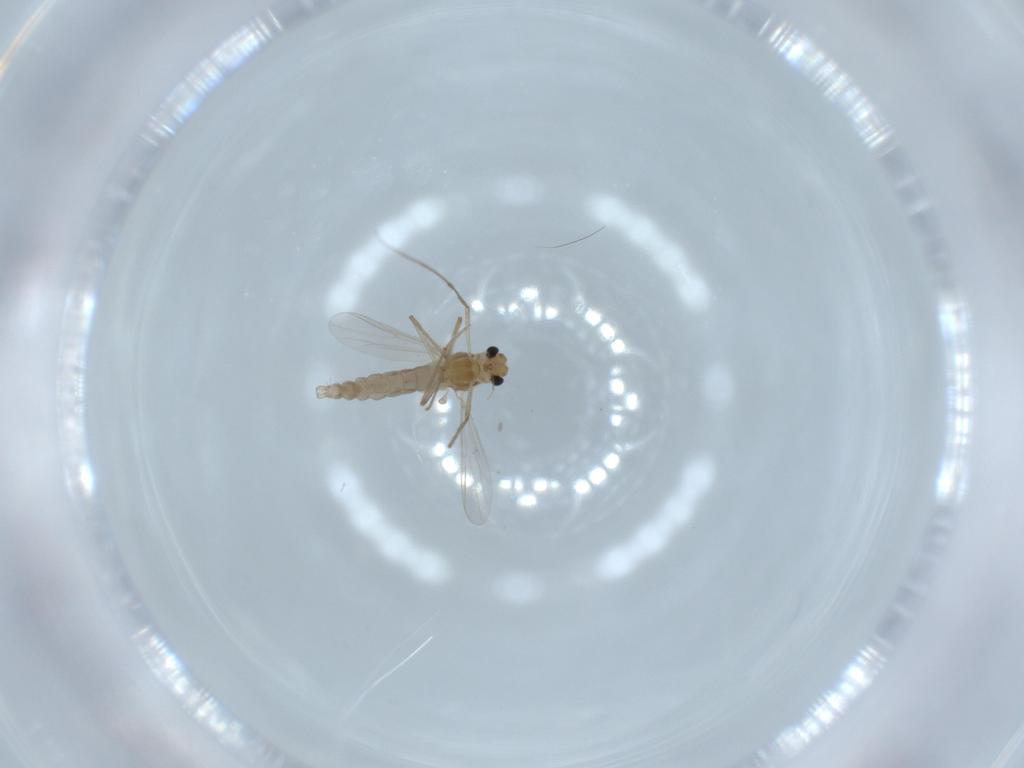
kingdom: Animalia
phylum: Arthropoda
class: Insecta
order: Diptera
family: Chironomidae
